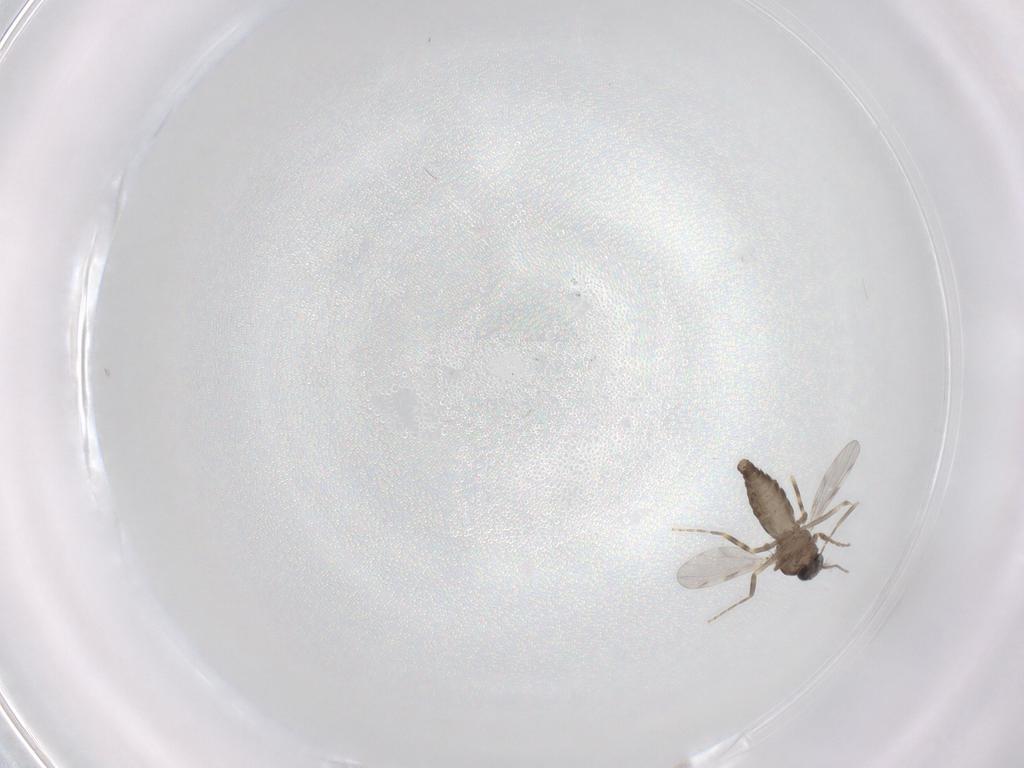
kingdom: Animalia
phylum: Arthropoda
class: Insecta
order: Diptera
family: Ceratopogonidae
